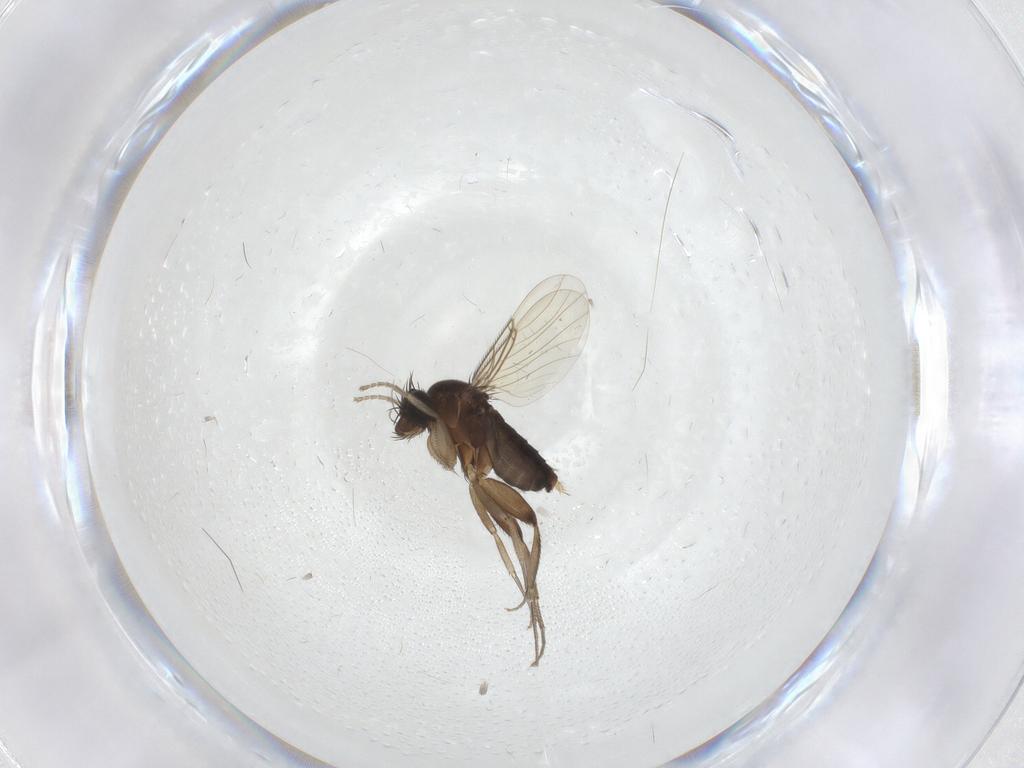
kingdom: Animalia
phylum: Arthropoda
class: Insecta
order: Diptera
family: Phoridae
